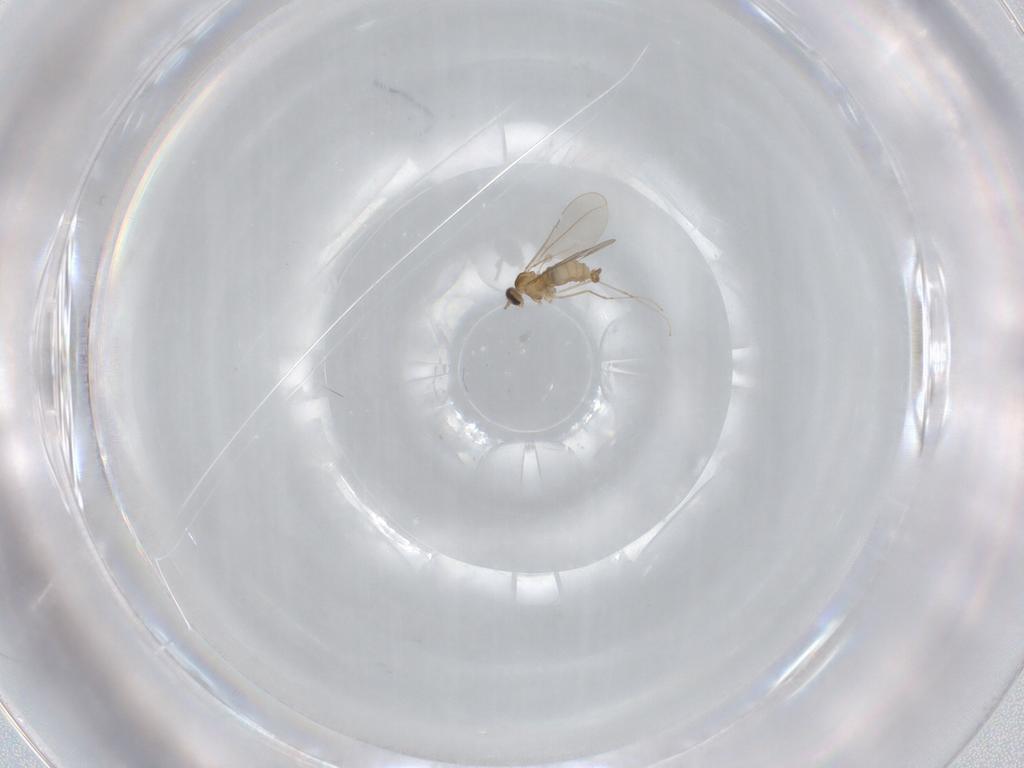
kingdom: Animalia
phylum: Arthropoda
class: Insecta
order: Diptera
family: Cecidomyiidae
